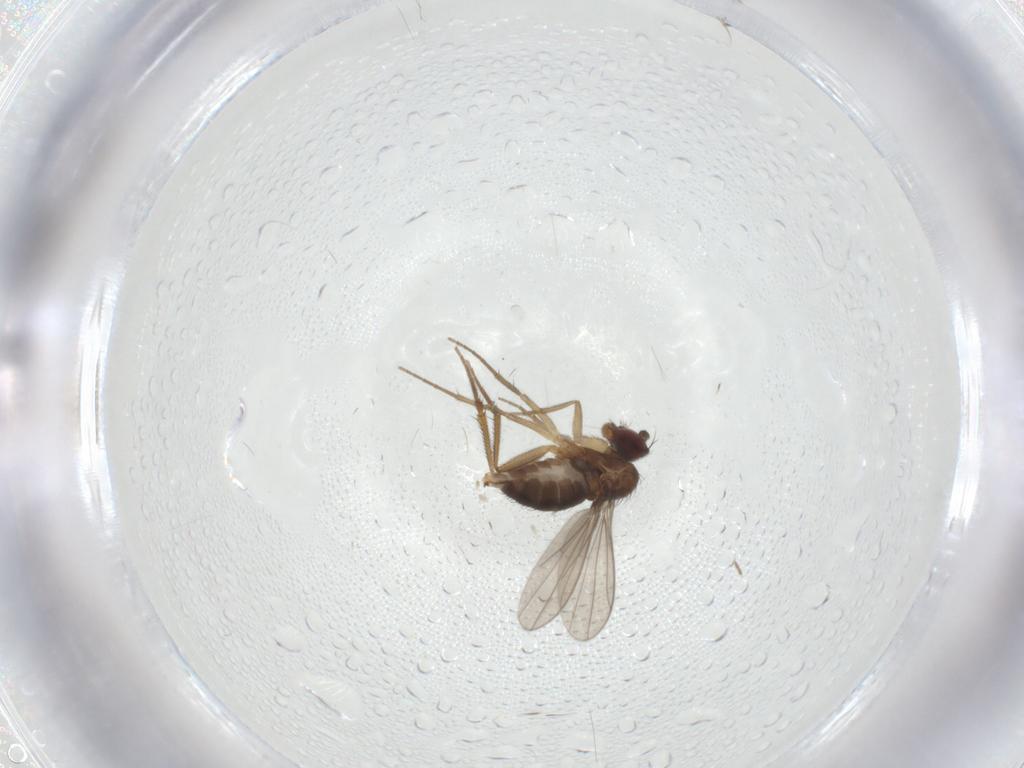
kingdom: Animalia
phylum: Arthropoda
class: Insecta
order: Diptera
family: Dolichopodidae
